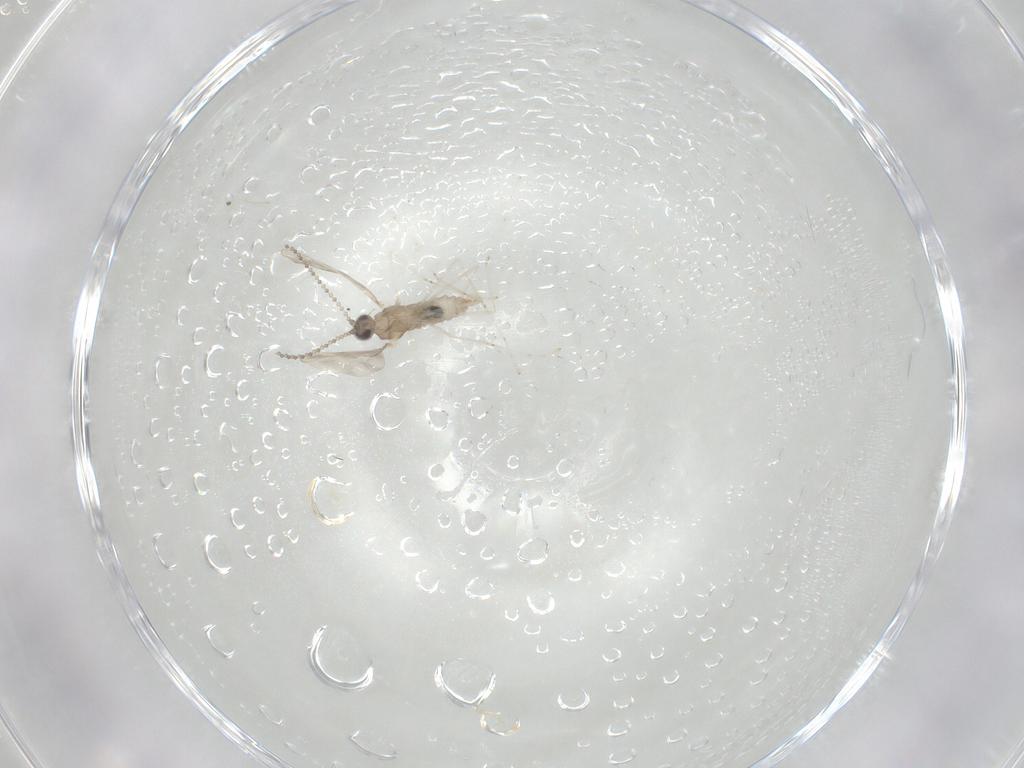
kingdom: Animalia
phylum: Arthropoda
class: Insecta
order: Diptera
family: Cecidomyiidae
